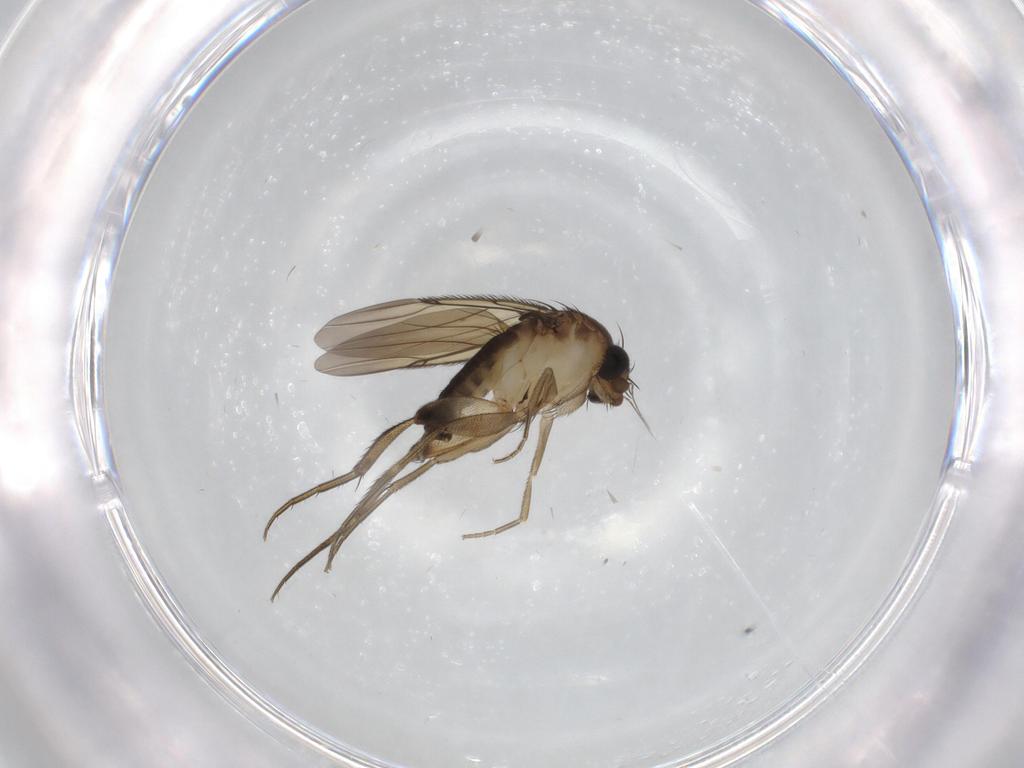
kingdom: Animalia
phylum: Arthropoda
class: Insecta
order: Diptera
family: Phoridae
